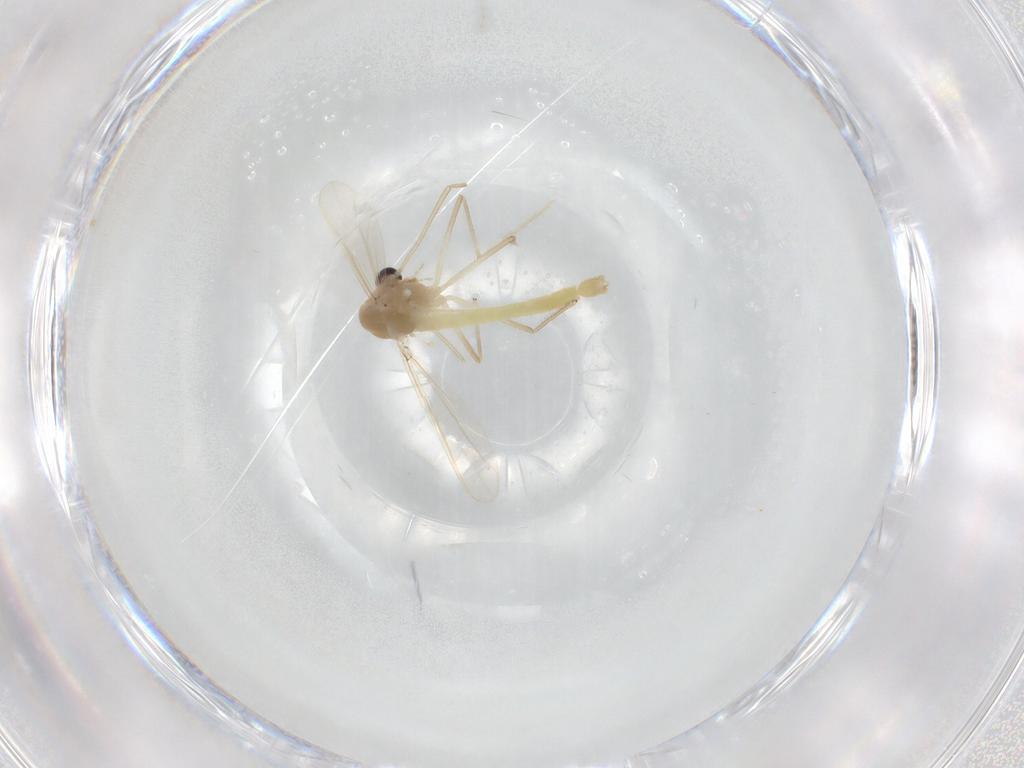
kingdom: Animalia
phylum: Arthropoda
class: Insecta
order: Diptera
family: Chironomidae
